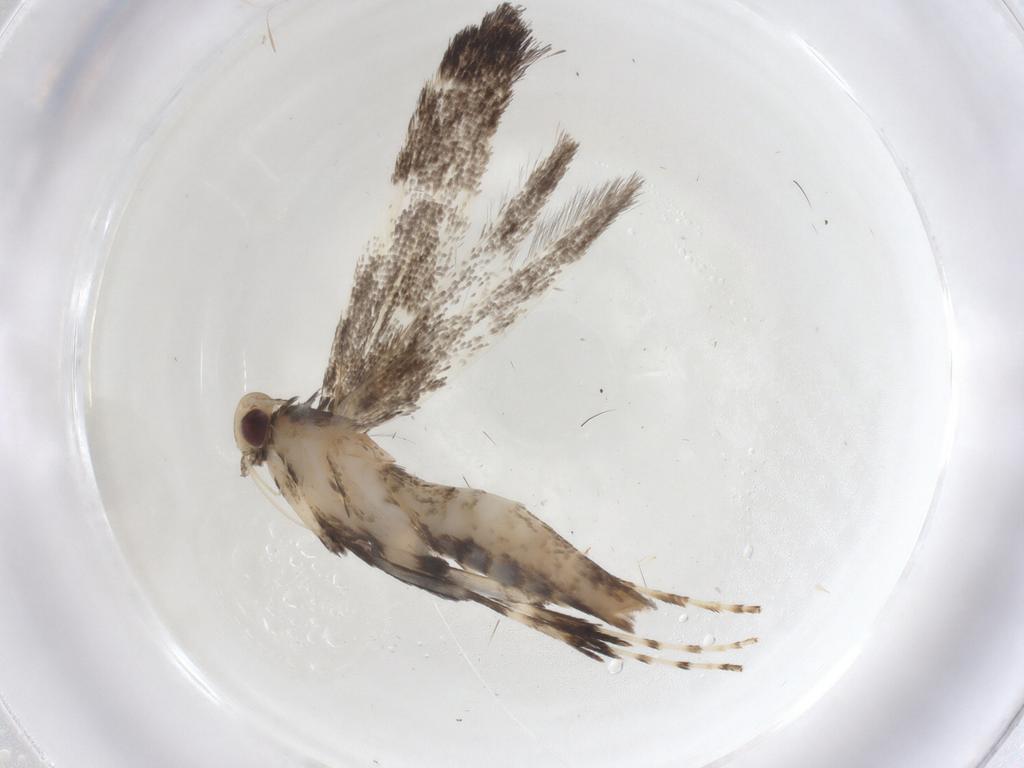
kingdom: Animalia
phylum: Arthropoda
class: Insecta
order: Lepidoptera
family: Gracillariidae
